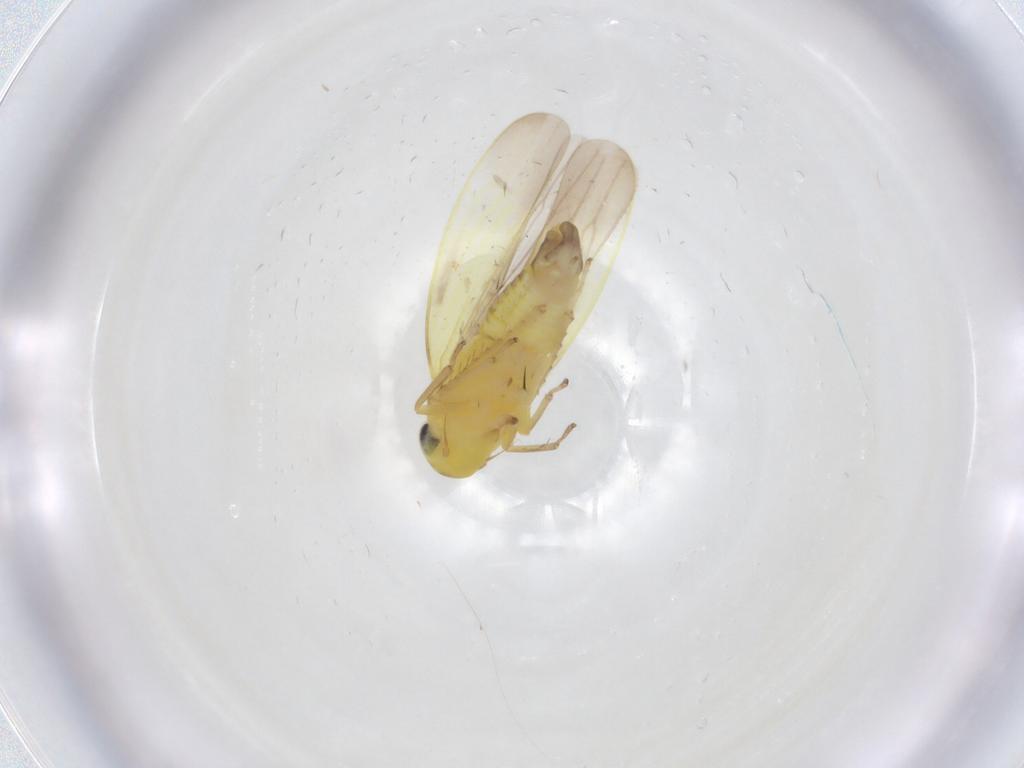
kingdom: Animalia
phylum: Arthropoda
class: Insecta
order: Hemiptera
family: Cicadellidae
